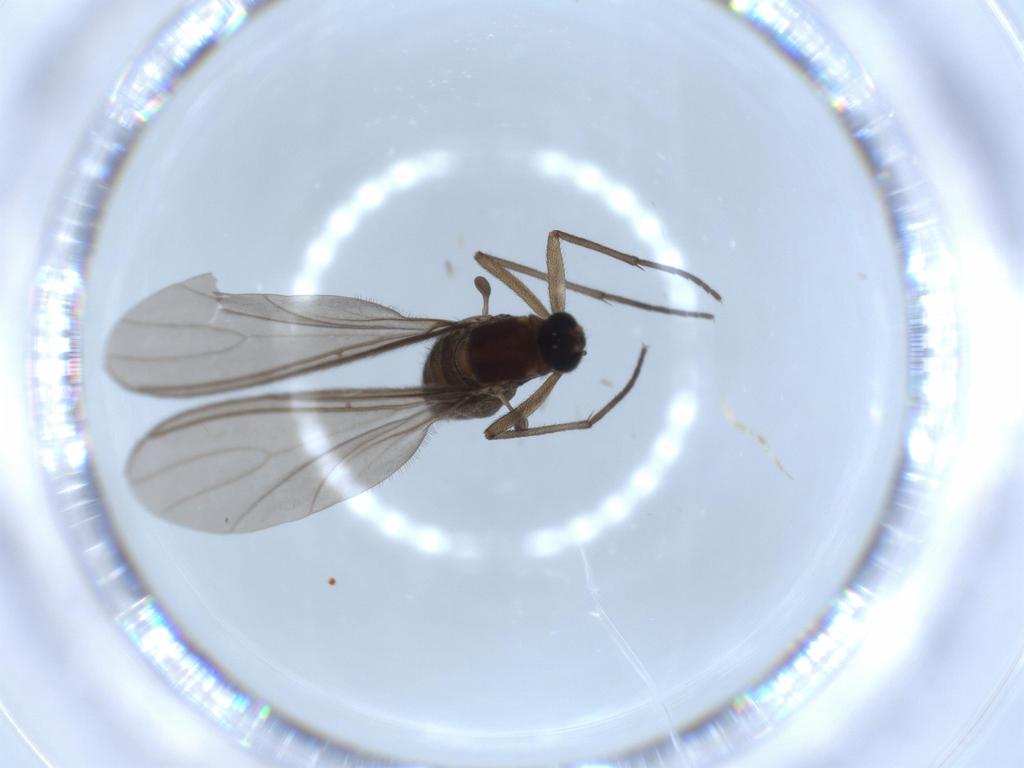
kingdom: Animalia
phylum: Arthropoda
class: Insecta
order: Diptera
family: Sciaridae
